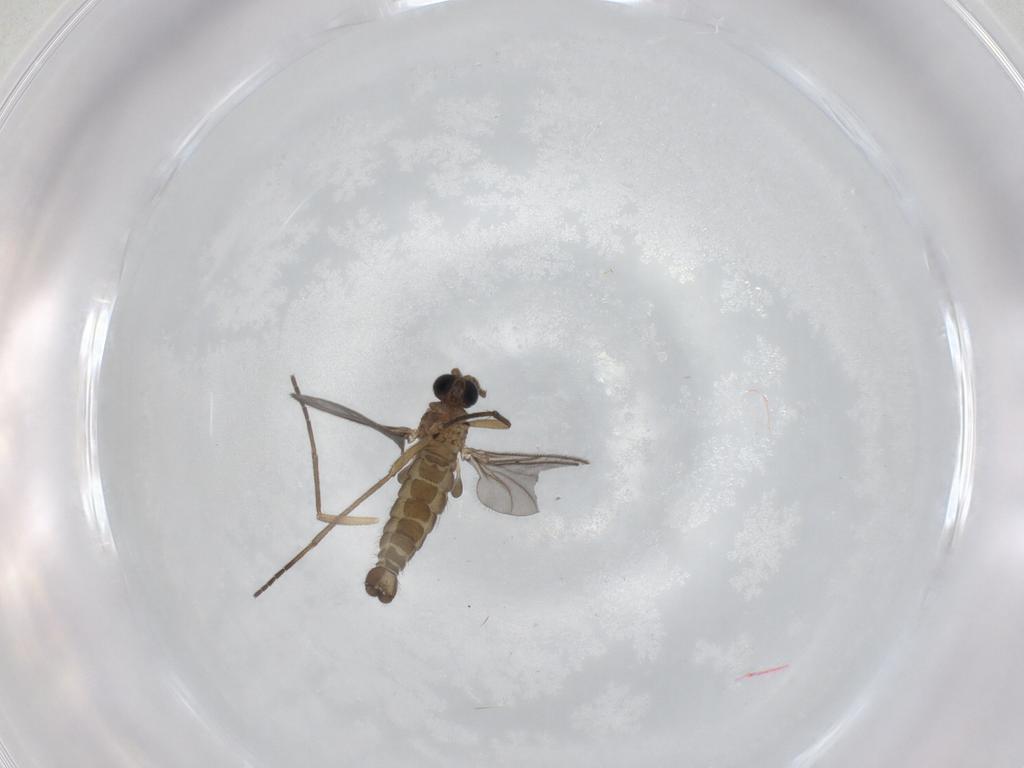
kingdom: Animalia
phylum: Arthropoda
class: Insecta
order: Diptera
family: Sciaridae
